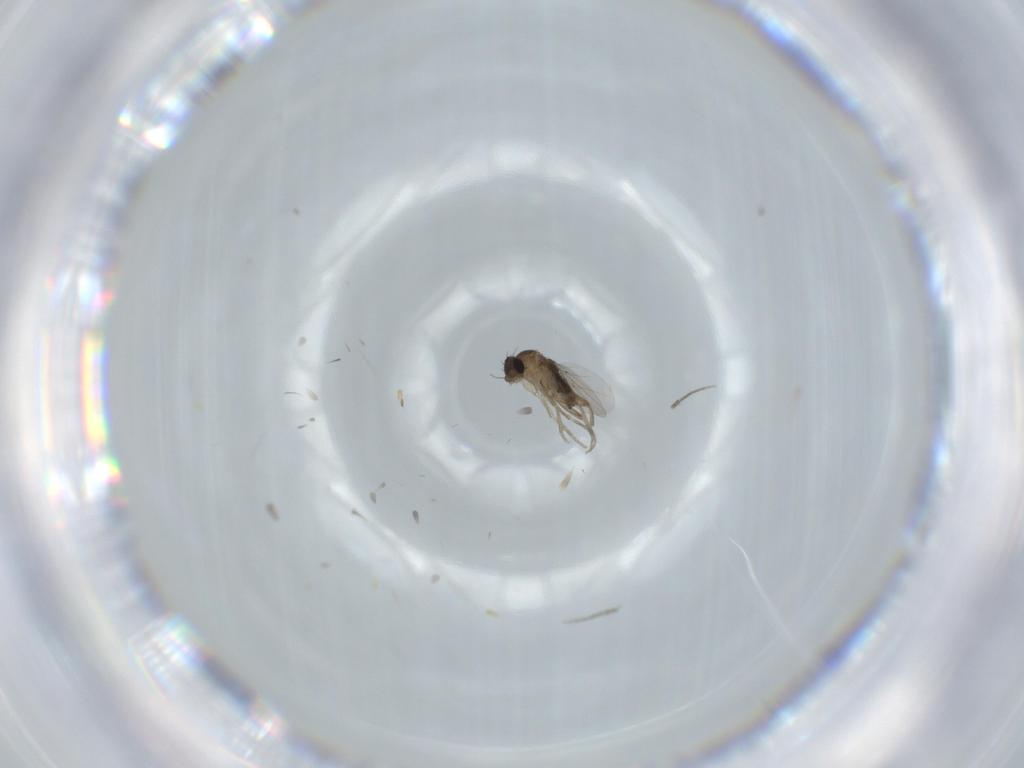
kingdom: Animalia
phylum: Arthropoda
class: Insecta
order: Diptera
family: Phoridae
